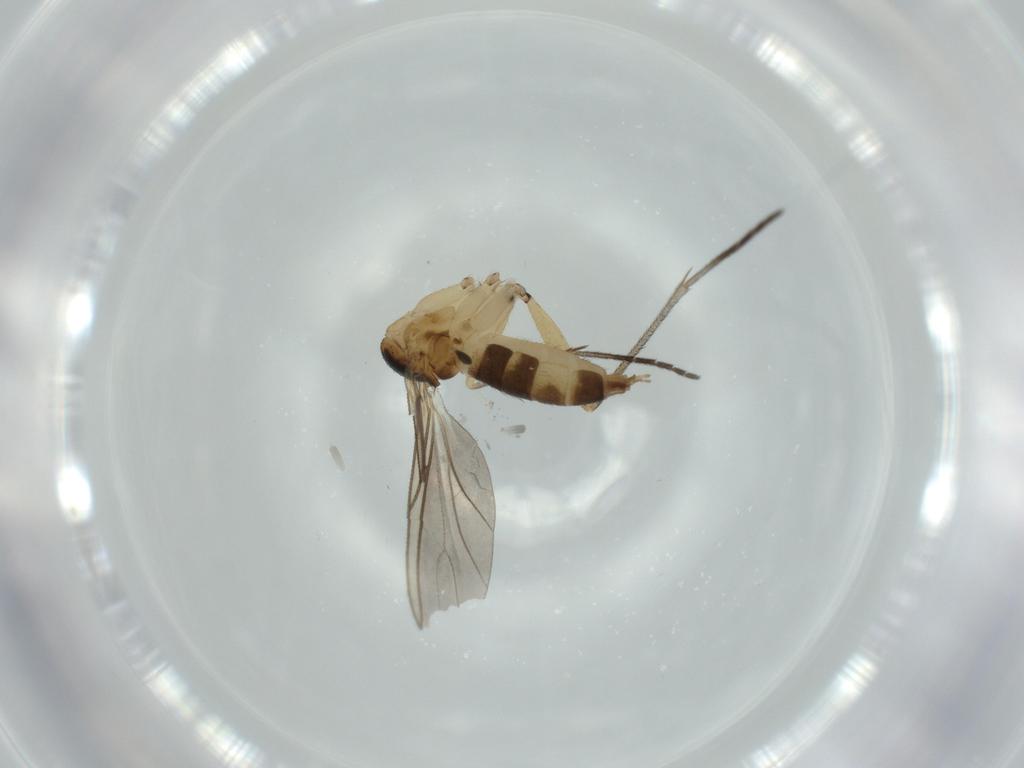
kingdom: Animalia
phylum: Arthropoda
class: Insecta
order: Diptera
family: Sciaridae
